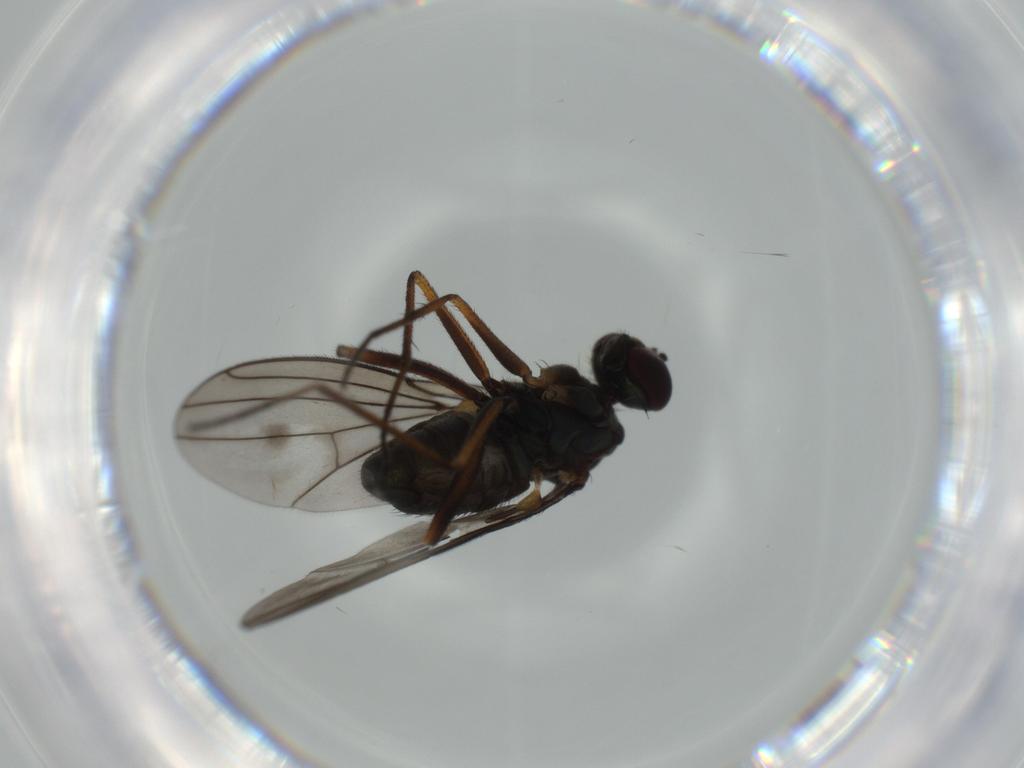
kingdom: Animalia
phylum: Arthropoda
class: Insecta
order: Diptera
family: Chironomidae
